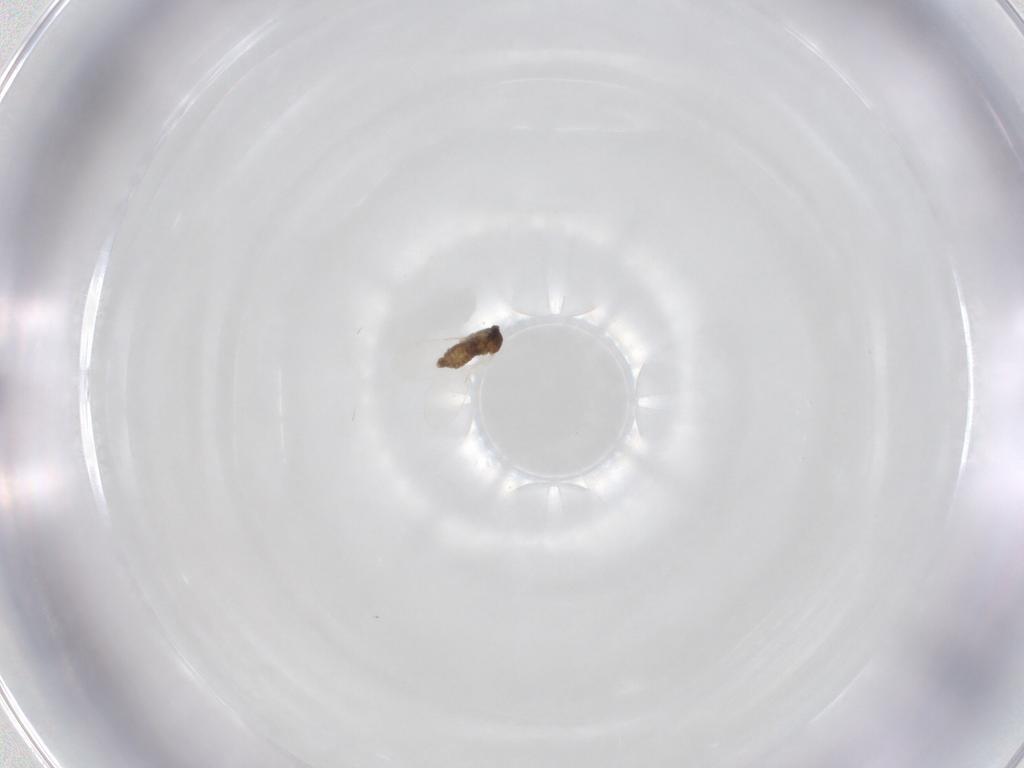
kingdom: Animalia
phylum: Arthropoda
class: Insecta
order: Diptera
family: Cecidomyiidae
